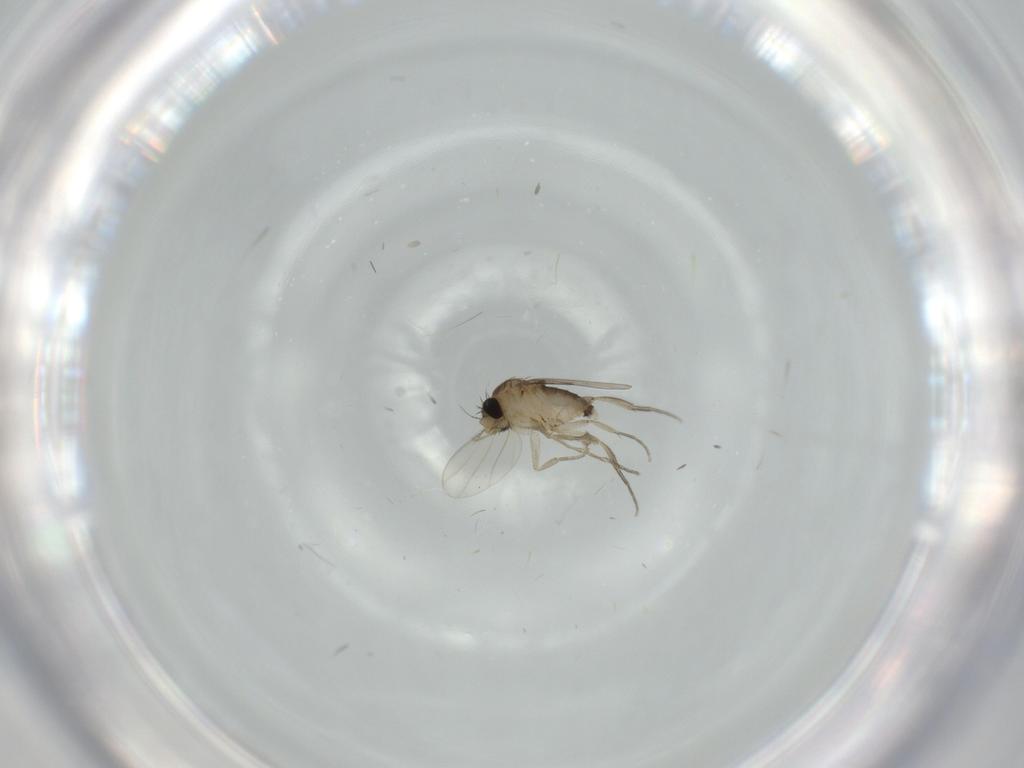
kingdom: Animalia
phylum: Arthropoda
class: Insecta
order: Diptera
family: Phoridae
